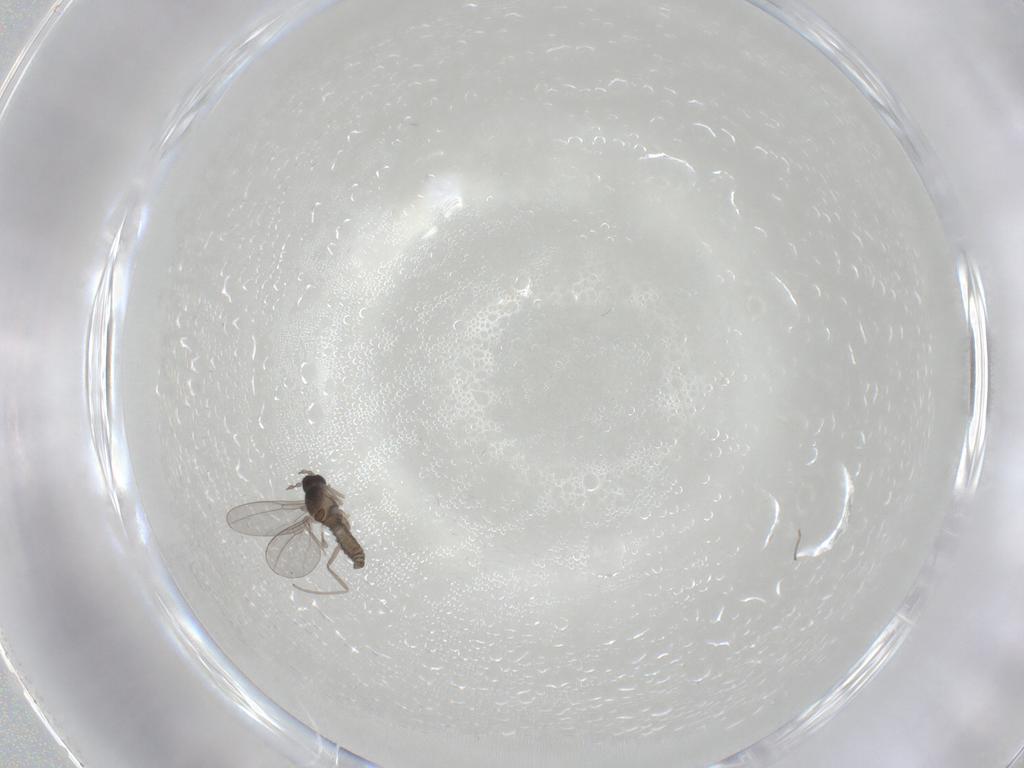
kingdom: Animalia
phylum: Arthropoda
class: Insecta
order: Diptera
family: Cecidomyiidae
